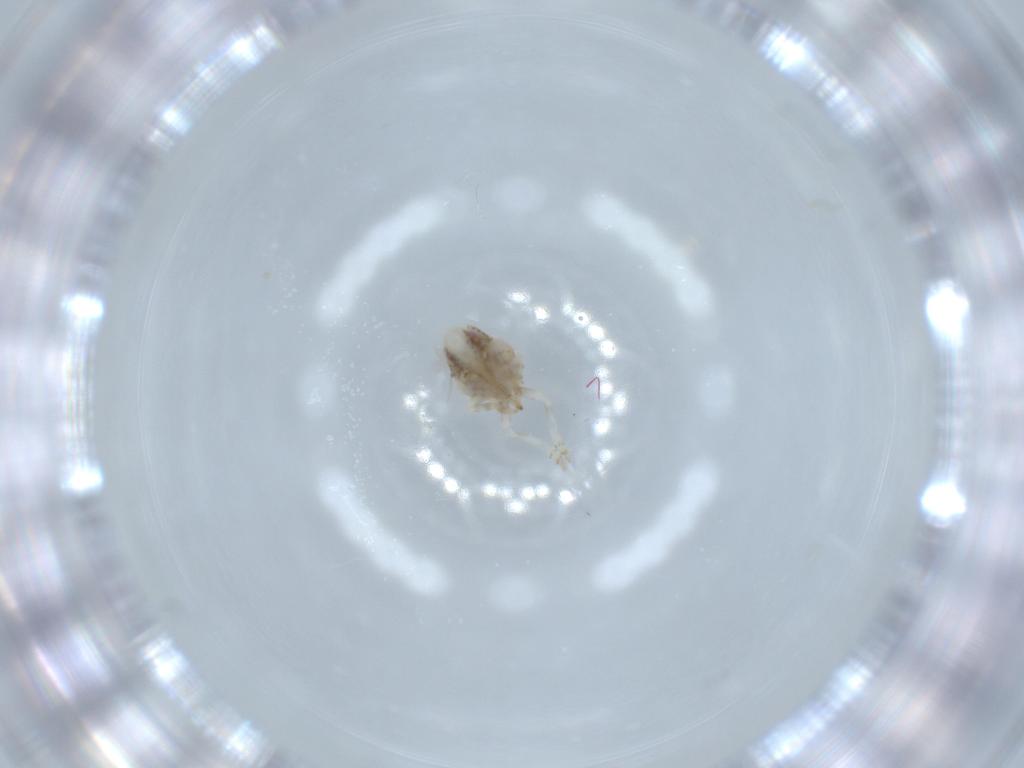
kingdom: Animalia
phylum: Arthropoda
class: Insecta
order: Hemiptera
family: Acanaloniidae
